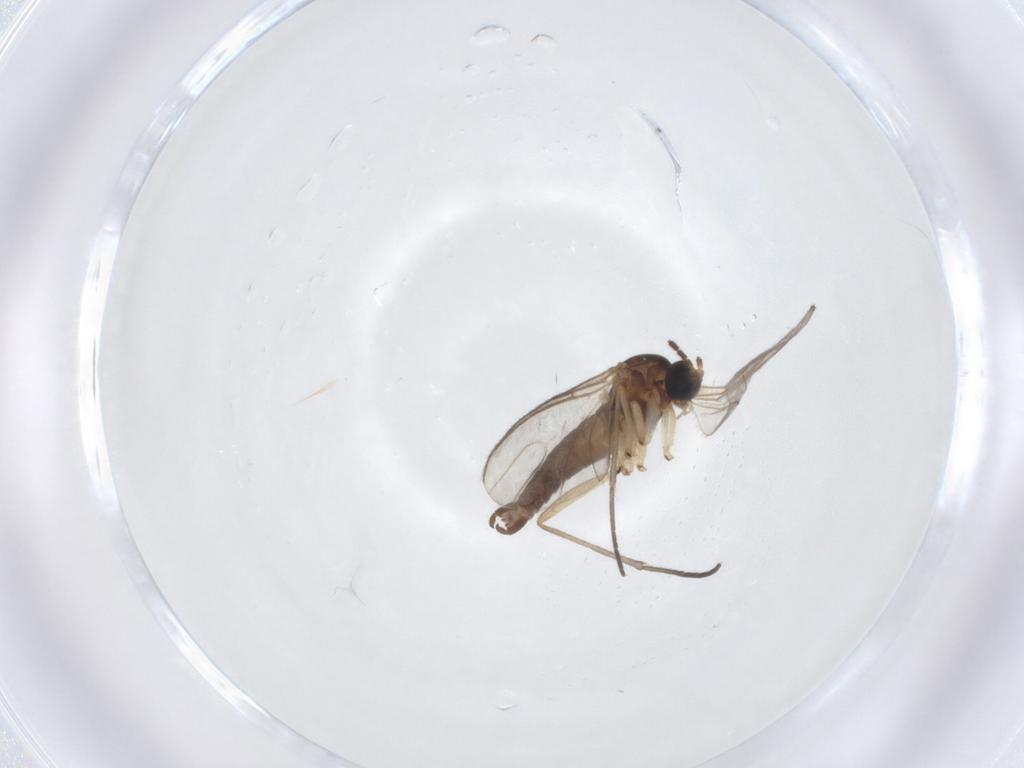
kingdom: Animalia
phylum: Arthropoda
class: Insecta
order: Diptera
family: Sciaridae
